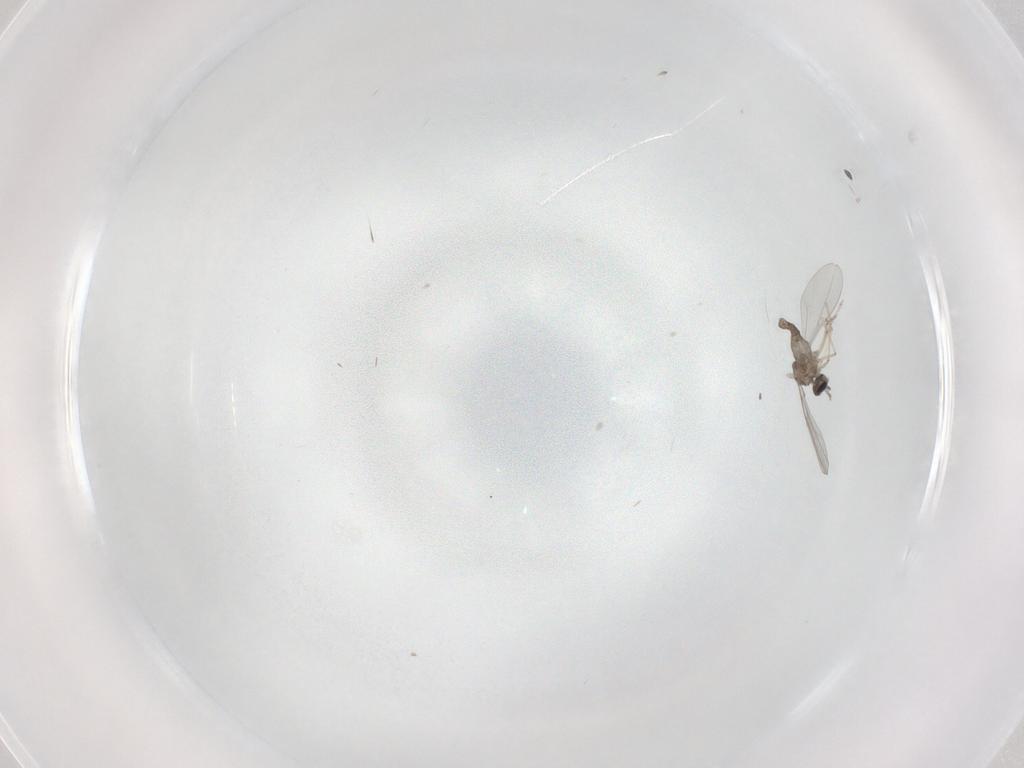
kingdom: Animalia
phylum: Arthropoda
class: Insecta
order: Diptera
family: Cecidomyiidae
